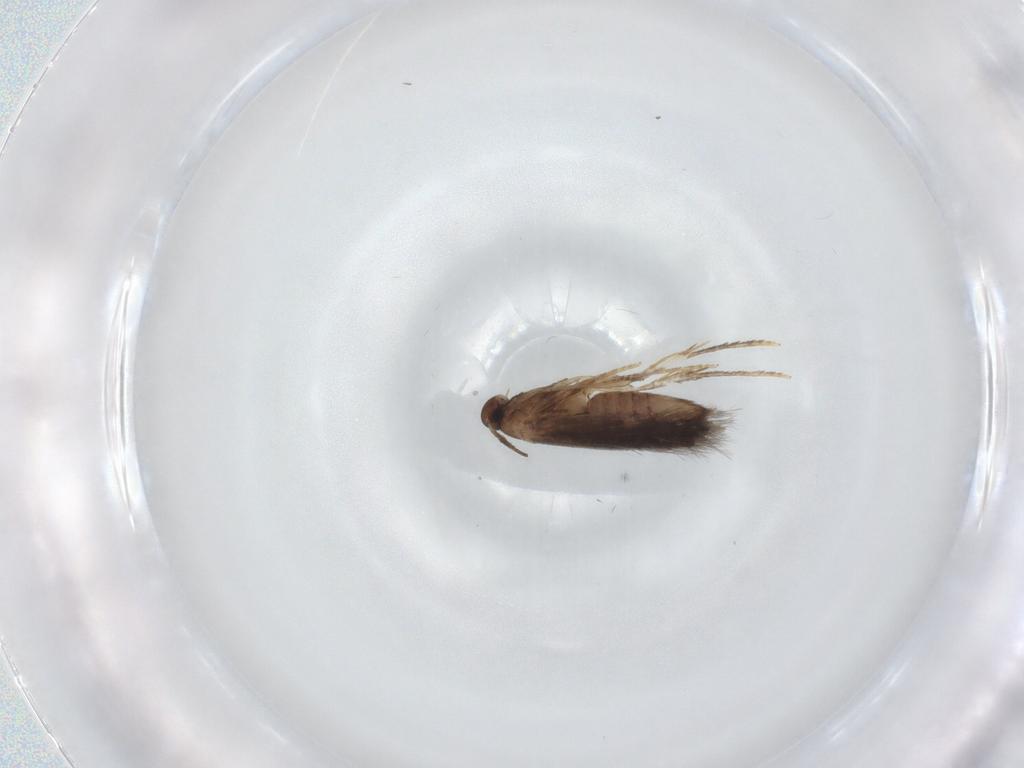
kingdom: Animalia
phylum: Arthropoda
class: Insecta
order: Lepidoptera
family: Heliozelidae
